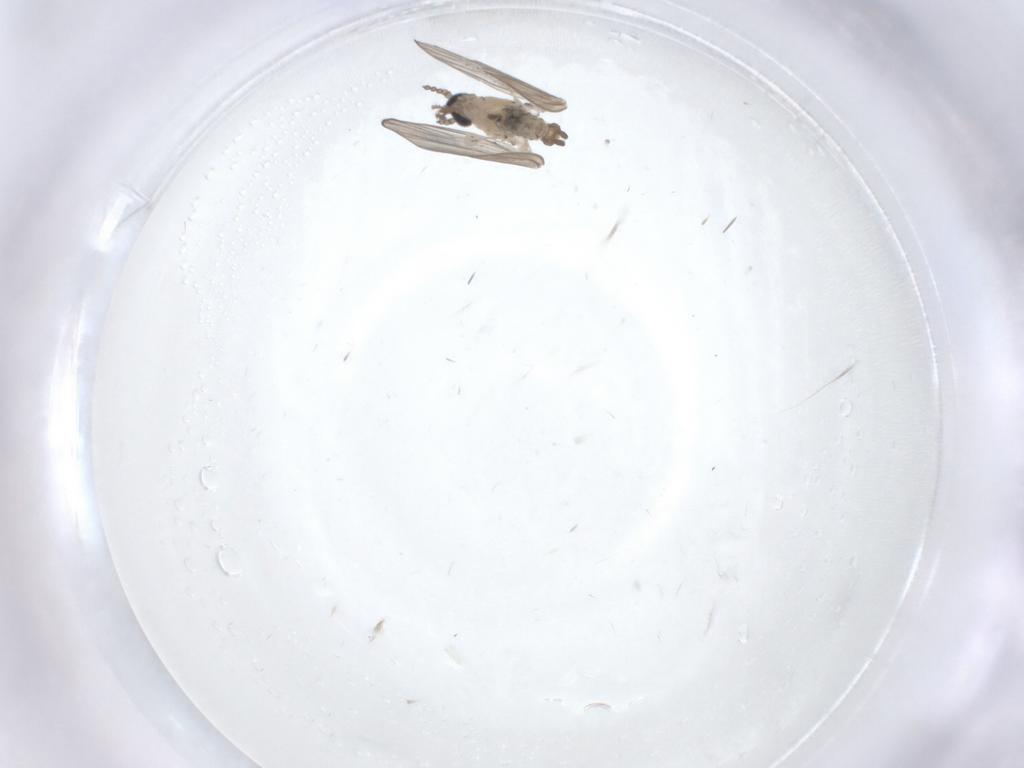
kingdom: Animalia
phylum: Arthropoda
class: Insecta
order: Diptera
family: Psychodidae
